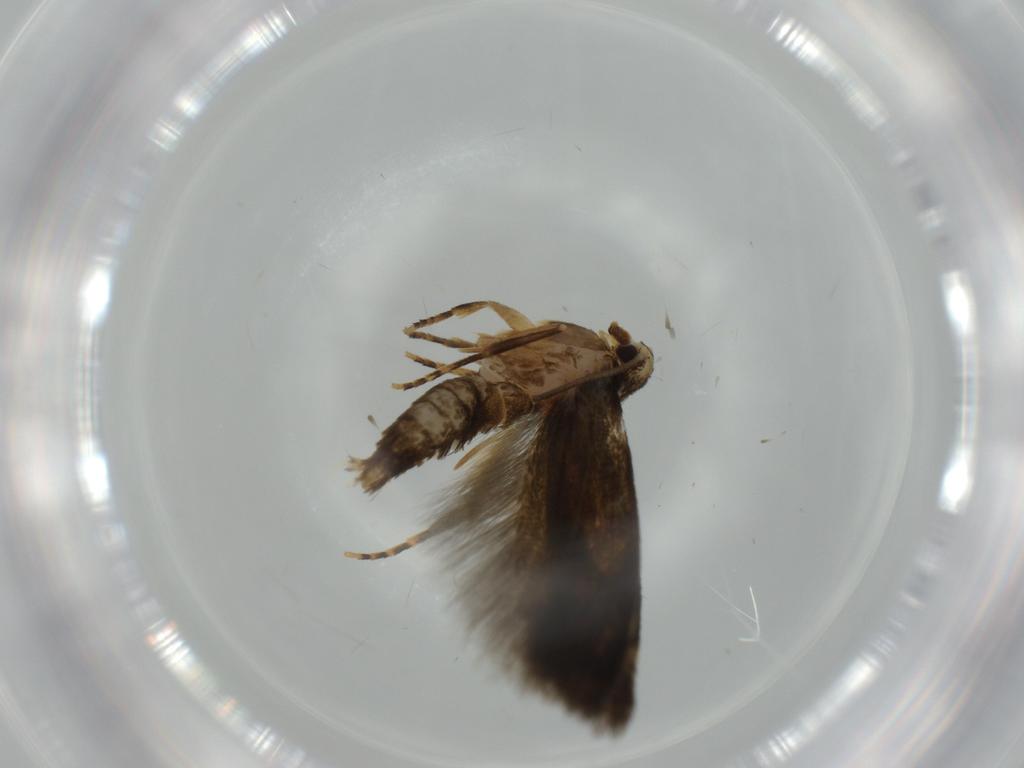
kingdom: Animalia
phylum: Arthropoda
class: Insecta
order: Lepidoptera
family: Tineidae
